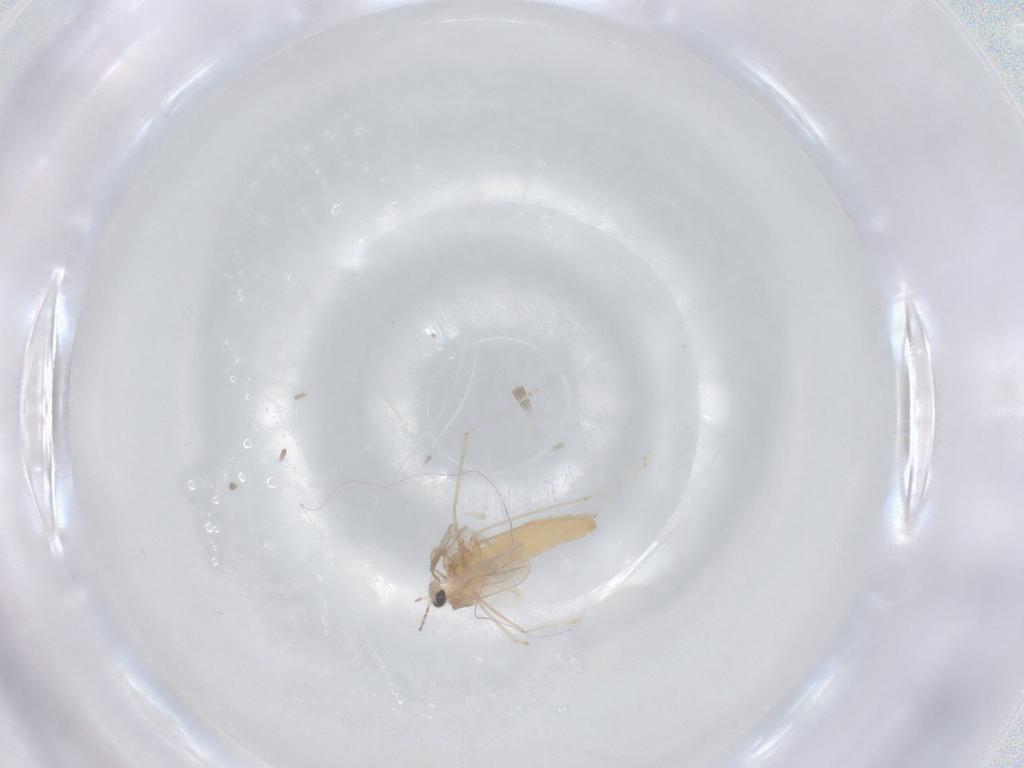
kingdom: Animalia
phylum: Arthropoda
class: Insecta
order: Diptera
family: Cecidomyiidae
